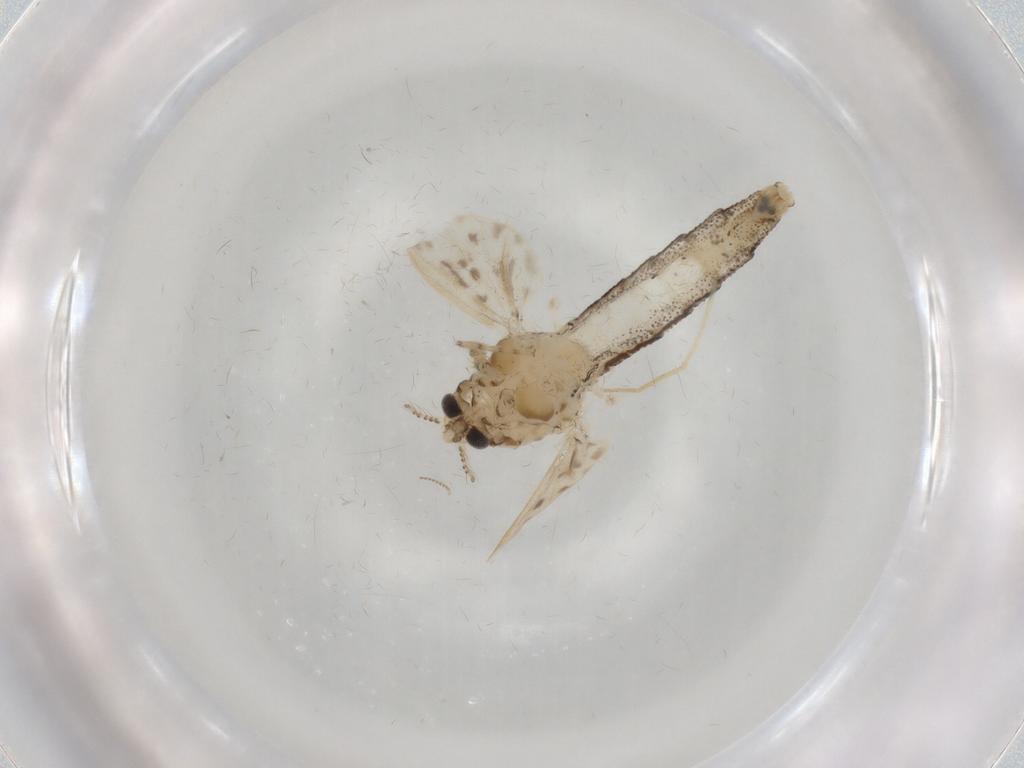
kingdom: Animalia
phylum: Arthropoda
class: Insecta
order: Diptera
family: Chaoboridae
